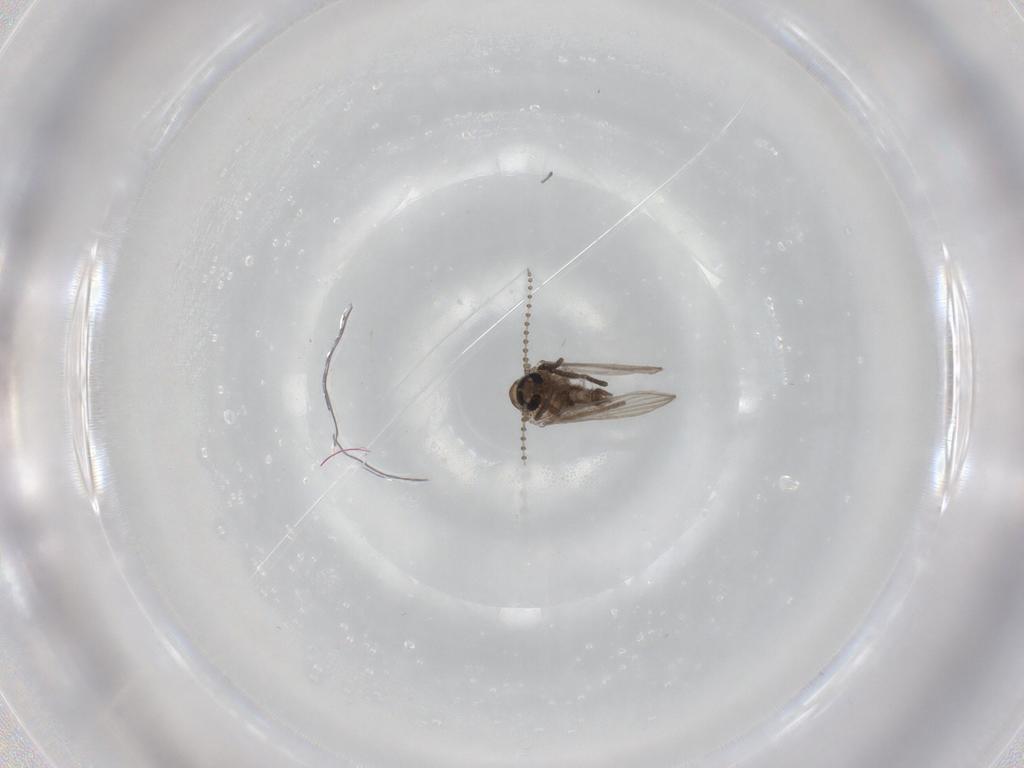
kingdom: Animalia
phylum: Arthropoda
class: Insecta
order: Diptera
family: Psychodidae
